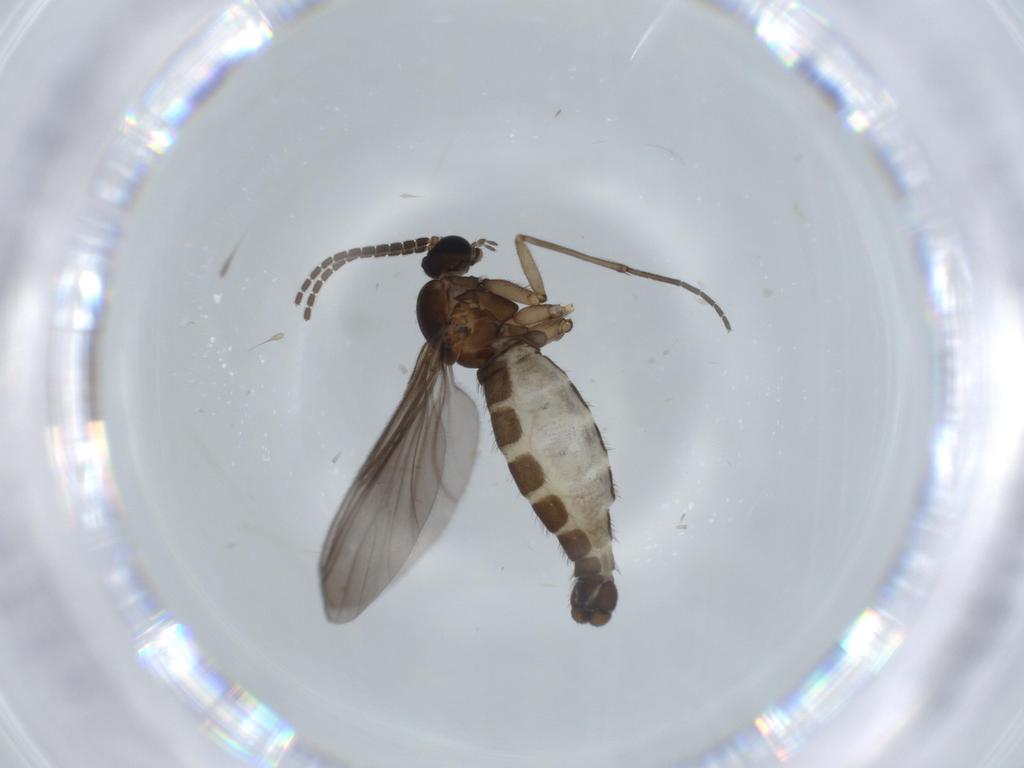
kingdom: Animalia
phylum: Arthropoda
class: Insecta
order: Diptera
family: Sciaridae
